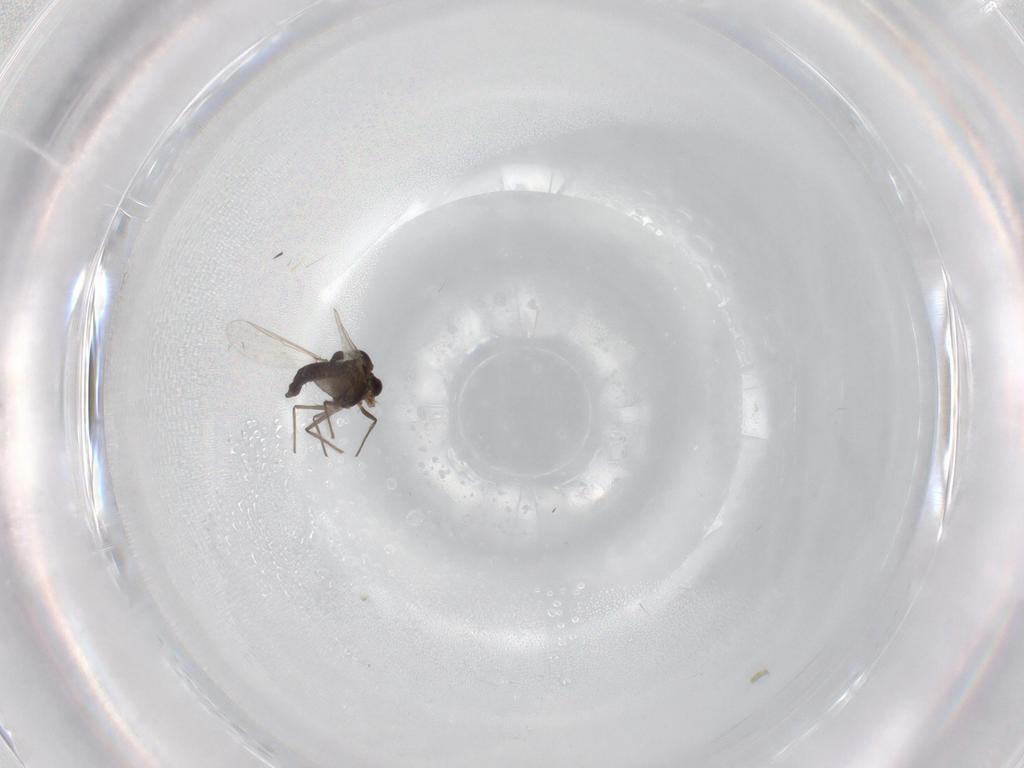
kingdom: Animalia
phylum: Arthropoda
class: Insecta
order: Diptera
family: Chironomidae
